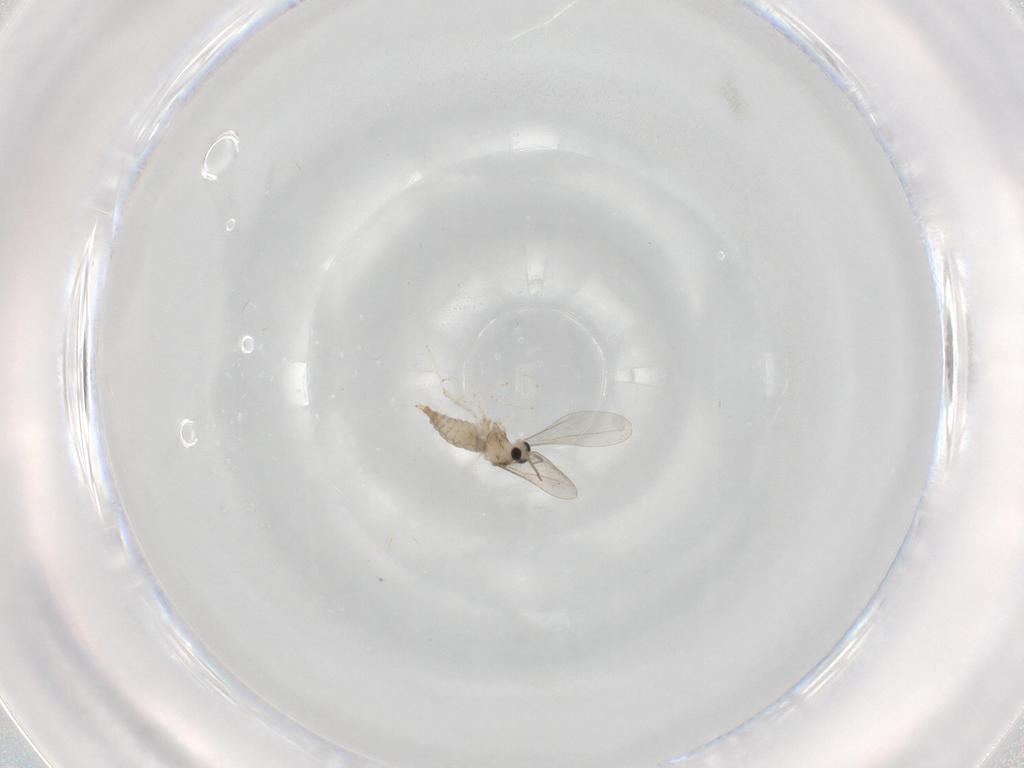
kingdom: Animalia
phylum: Arthropoda
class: Insecta
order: Diptera
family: Cecidomyiidae
